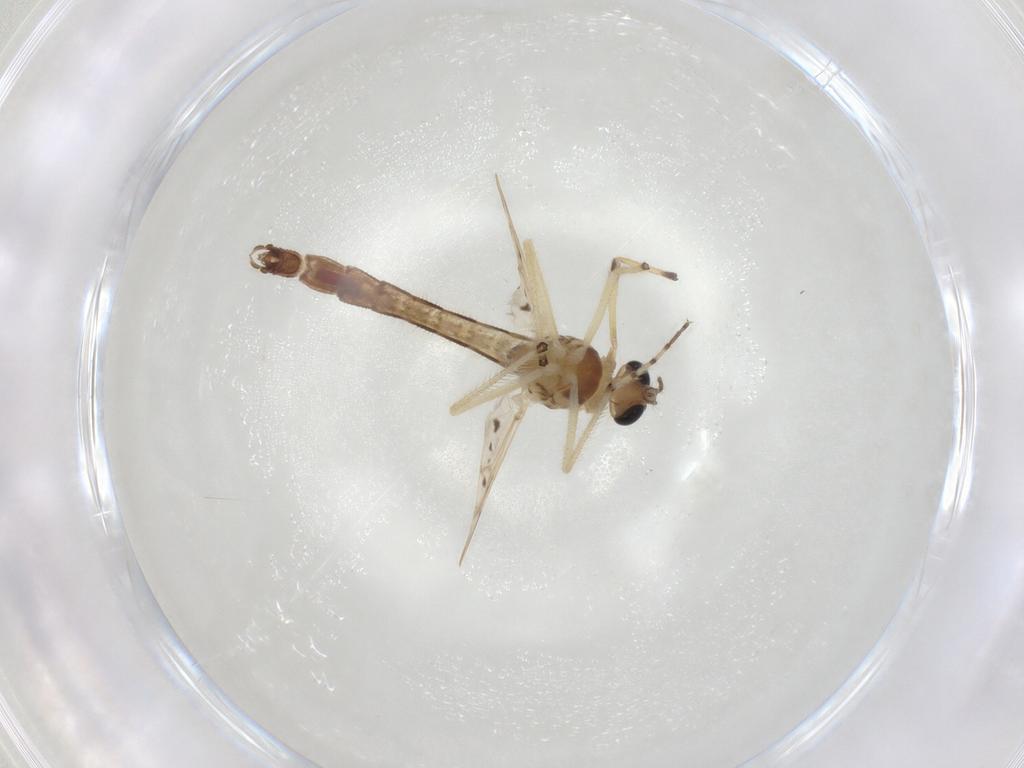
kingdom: Animalia
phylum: Arthropoda
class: Insecta
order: Diptera
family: Chironomidae
